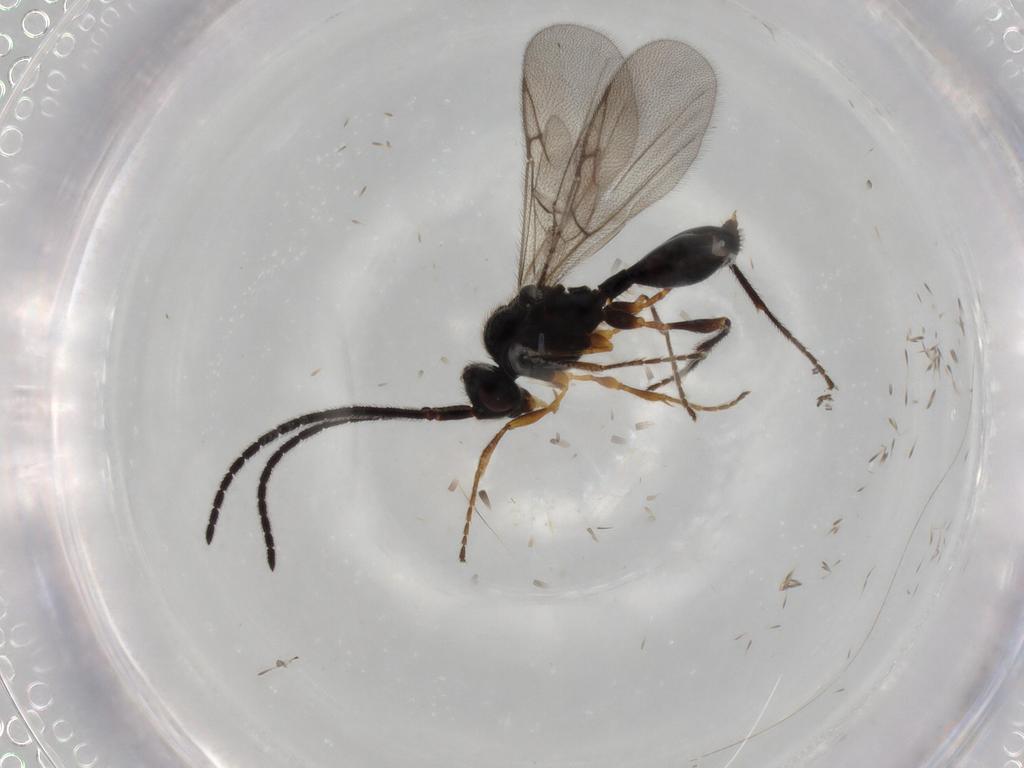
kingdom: Animalia
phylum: Arthropoda
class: Insecta
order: Hymenoptera
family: Diapriidae
